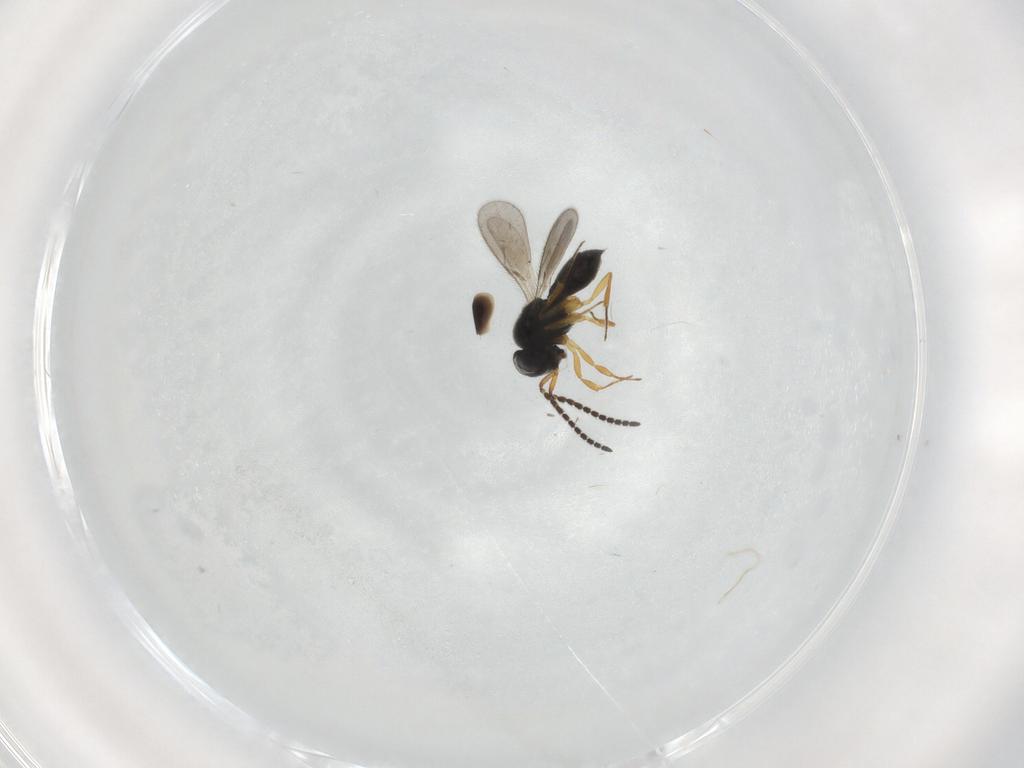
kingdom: Animalia
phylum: Arthropoda
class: Insecta
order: Hymenoptera
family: Scelionidae
